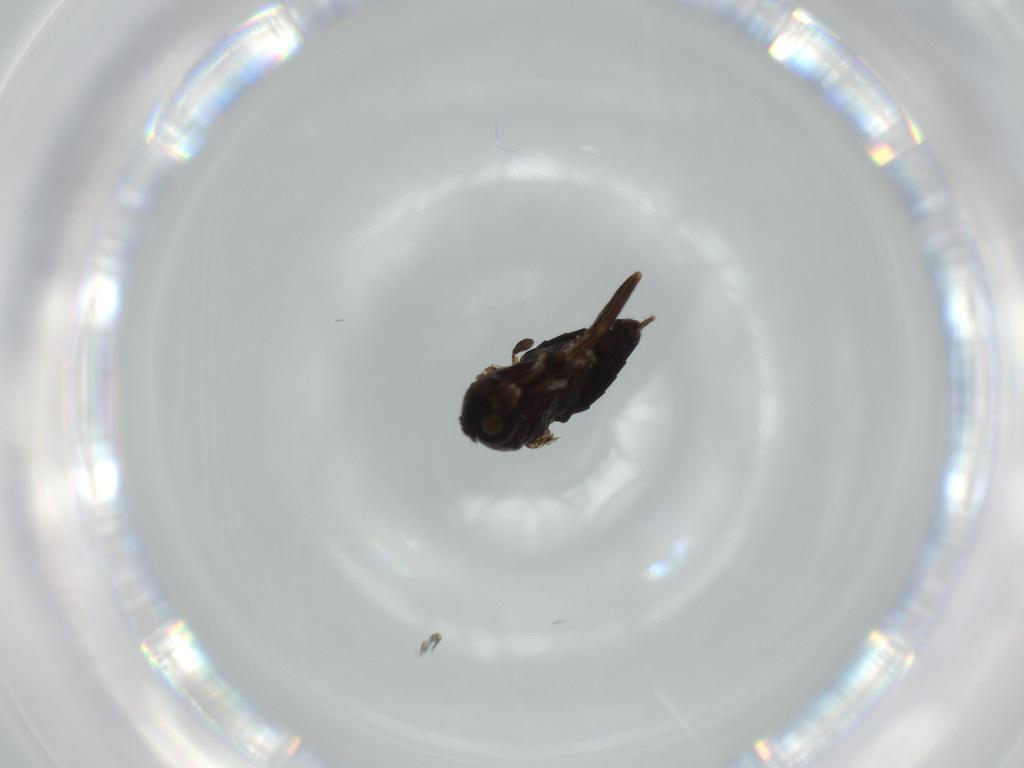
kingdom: Animalia
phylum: Arthropoda
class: Insecta
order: Diptera
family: Phoridae
